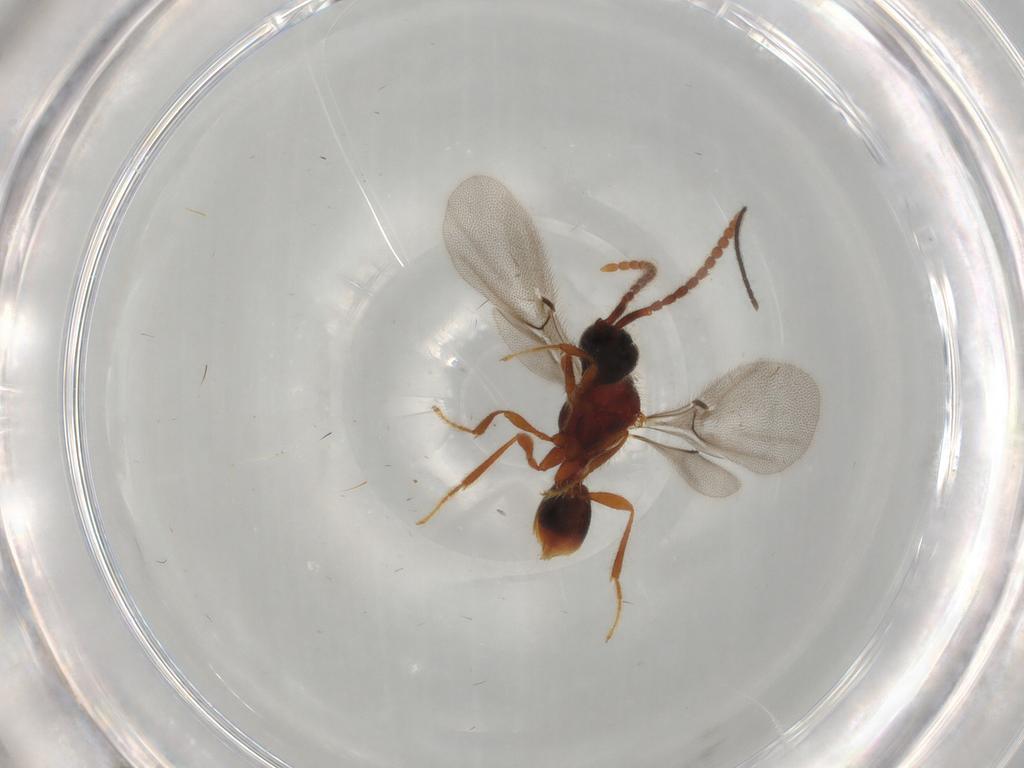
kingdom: Animalia
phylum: Arthropoda
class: Insecta
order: Hymenoptera
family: Diapriidae
